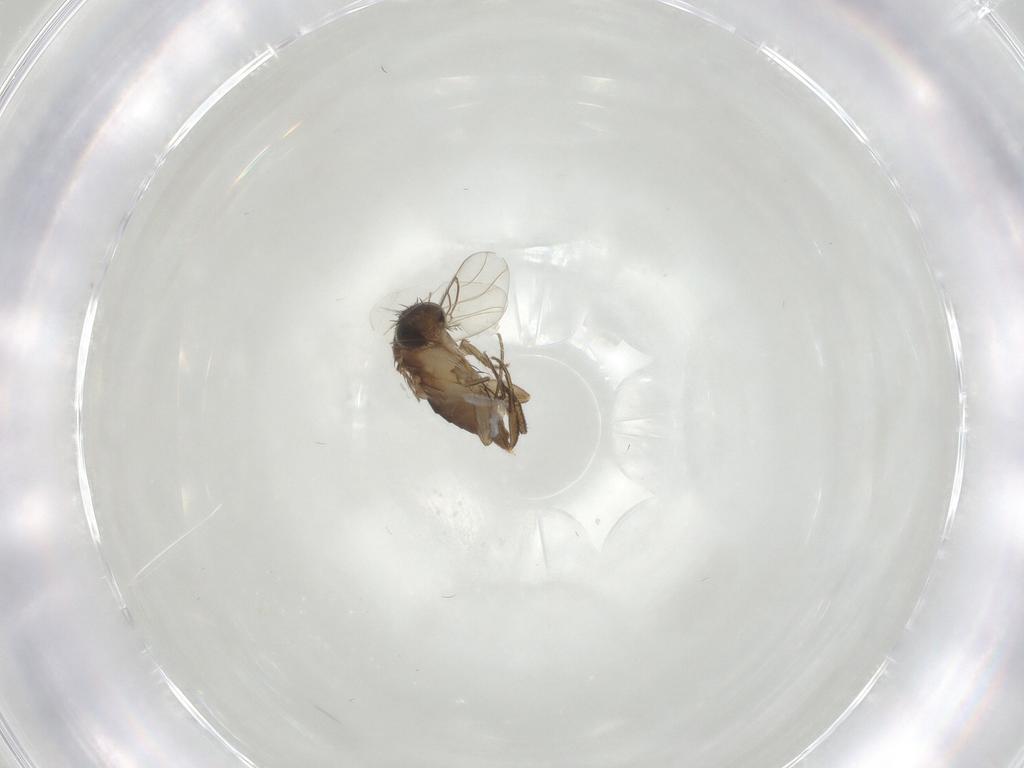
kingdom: Animalia
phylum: Arthropoda
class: Insecta
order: Diptera
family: Phoridae
